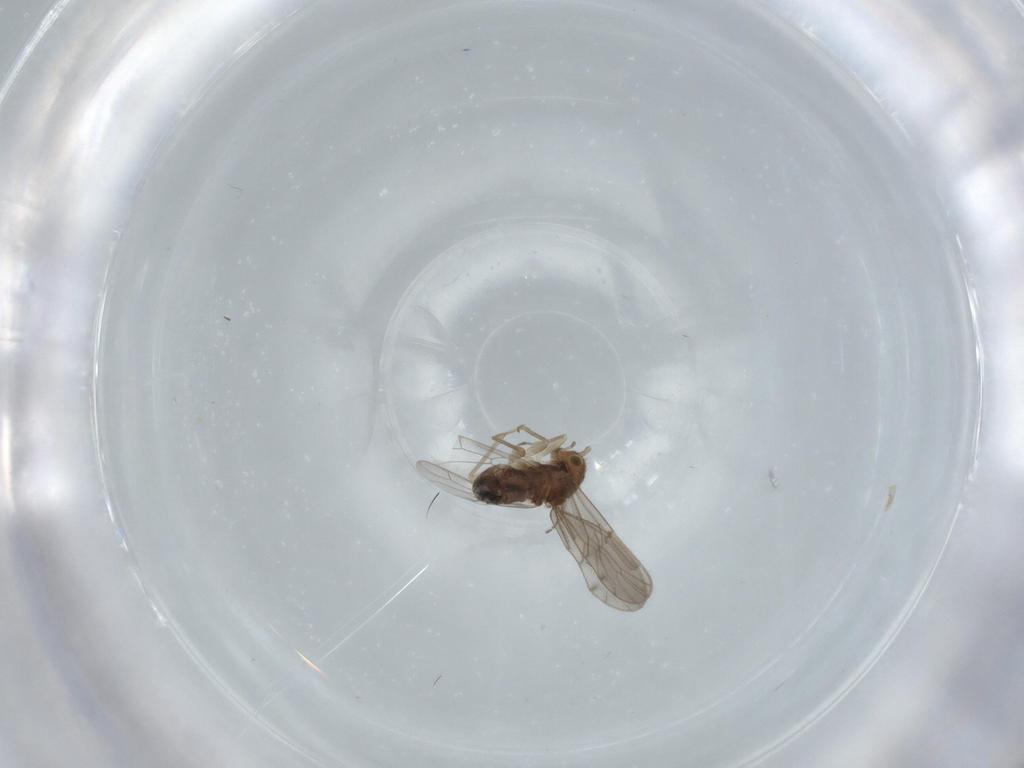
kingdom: Animalia
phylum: Arthropoda
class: Insecta
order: Psocodea
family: Ectopsocidae
